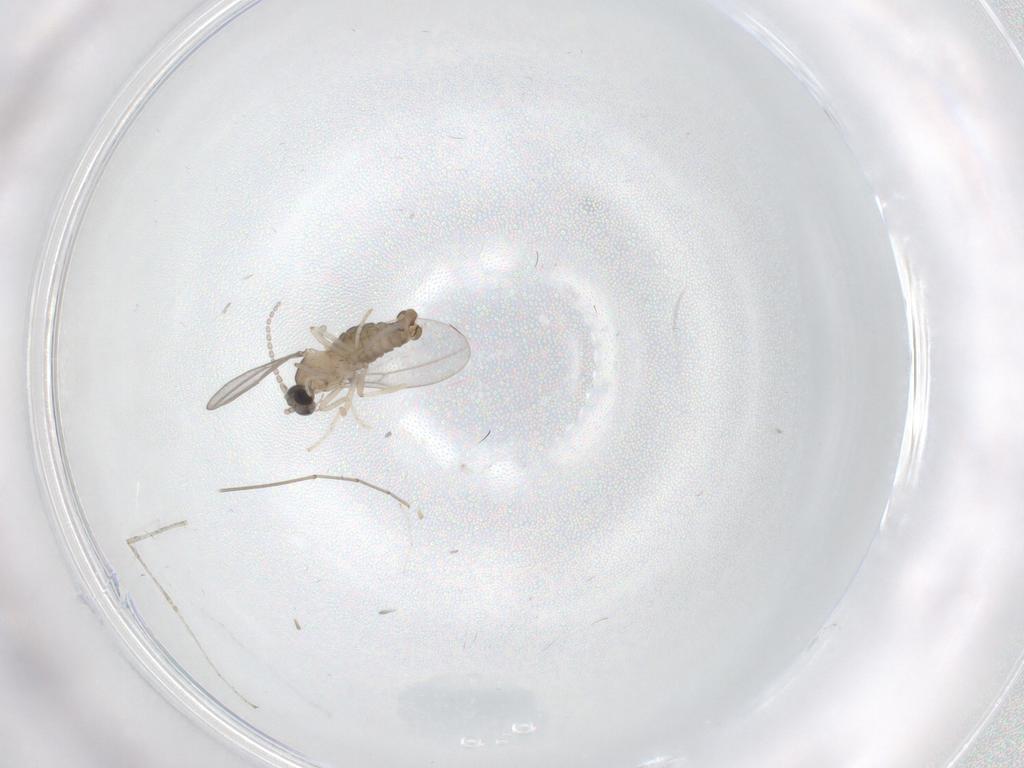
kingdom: Animalia
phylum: Arthropoda
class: Insecta
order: Diptera
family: Cecidomyiidae
